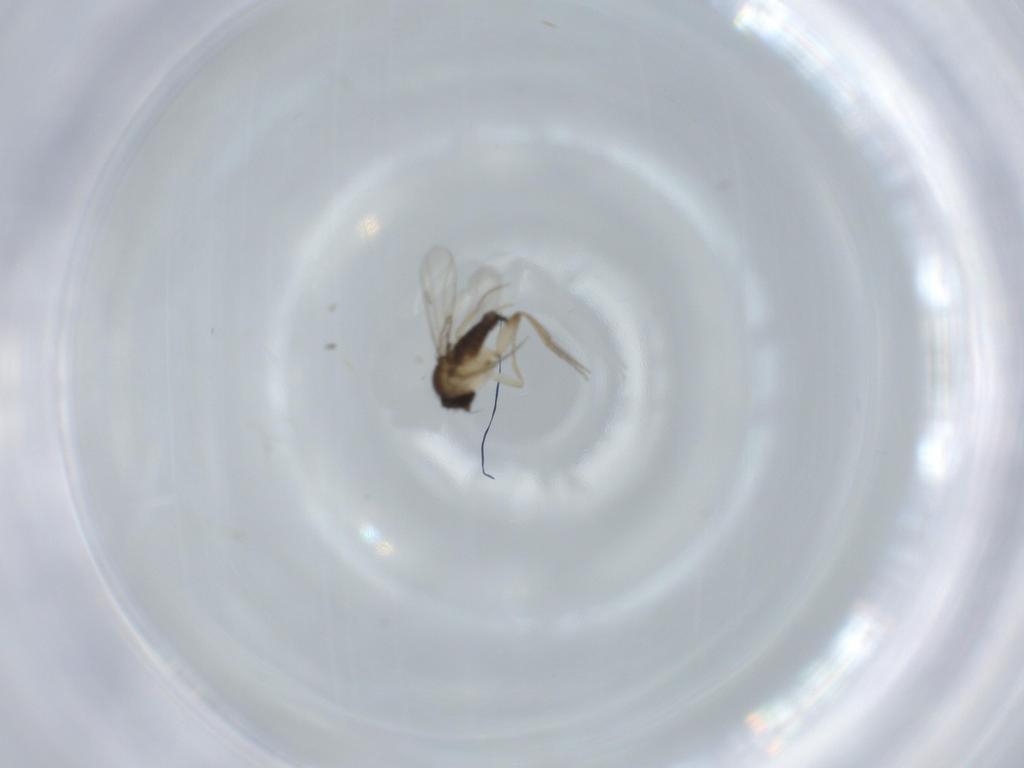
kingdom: Animalia
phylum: Arthropoda
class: Insecta
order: Diptera
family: Phoridae
